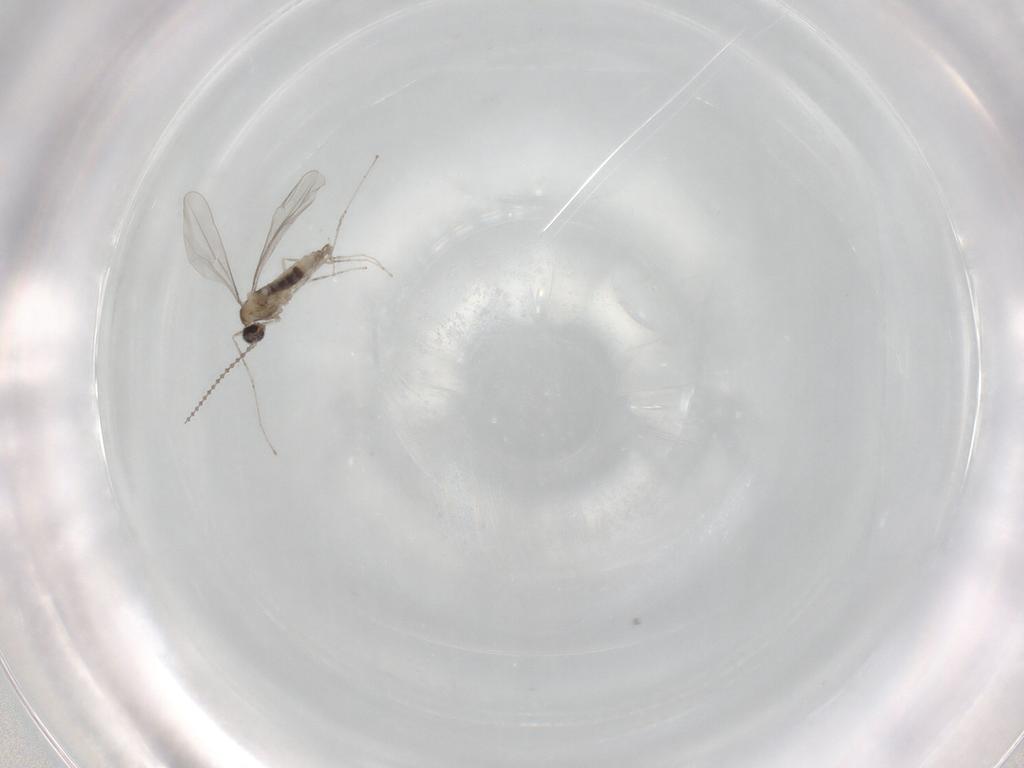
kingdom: Animalia
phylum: Arthropoda
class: Insecta
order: Diptera
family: Cecidomyiidae
